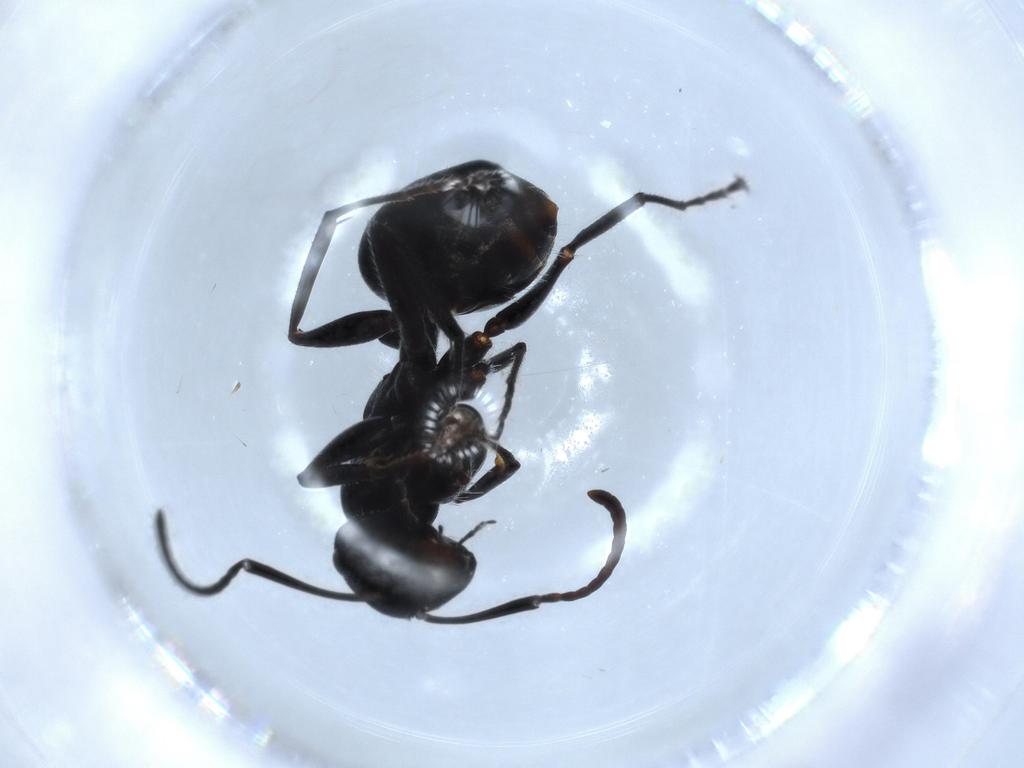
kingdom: Animalia
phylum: Arthropoda
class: Insecta
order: Hymenoptera
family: Formicidae
